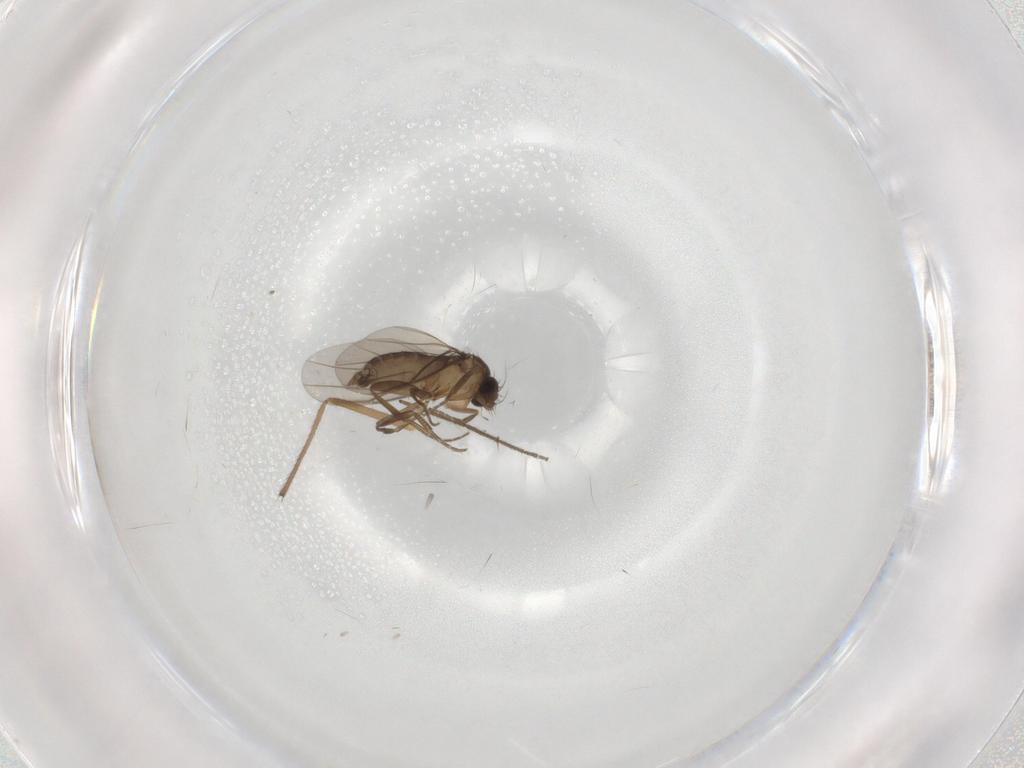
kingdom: Animalia
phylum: Arthropoda
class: Insecta
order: Diptera
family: Phoridae
